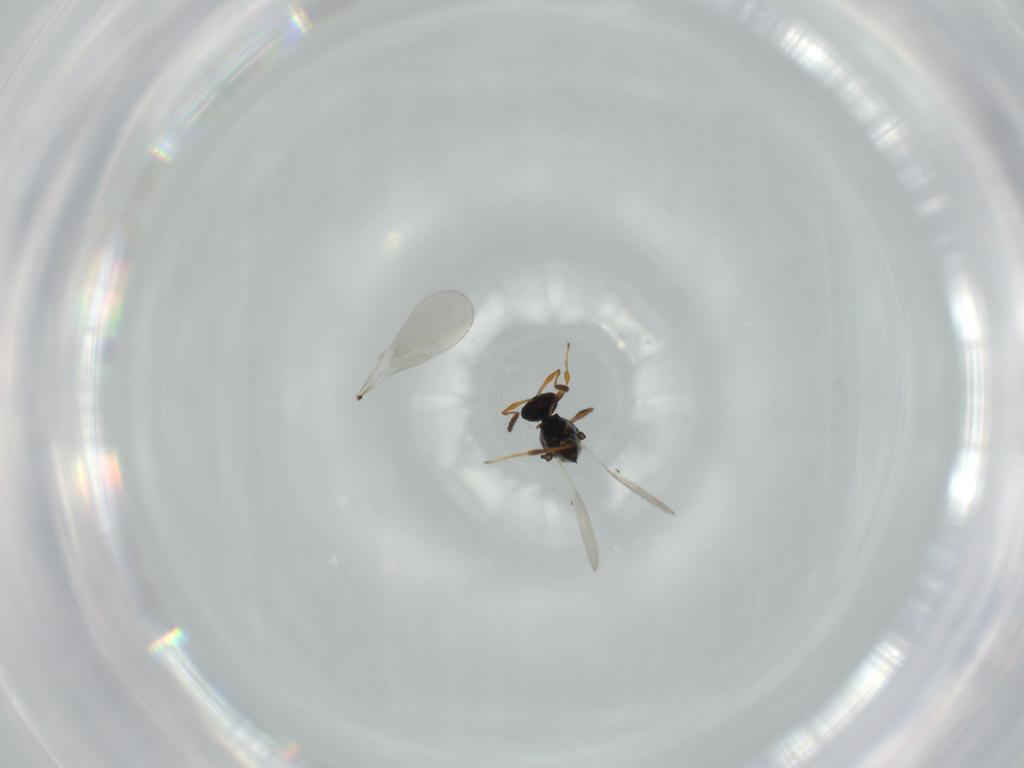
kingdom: Animalia
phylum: Arthropoda
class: Insecta
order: Hymenoptera
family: Platygastridae
